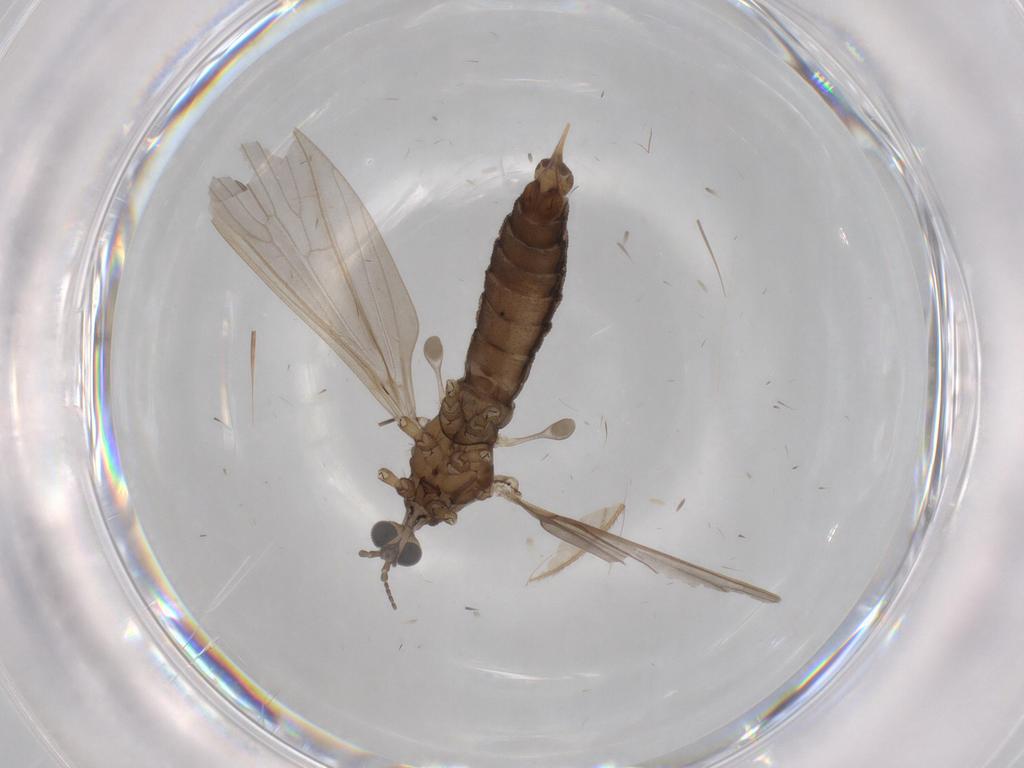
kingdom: Animalia
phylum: Arthropoda
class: Insecta
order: Diptera
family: Limoniidae
